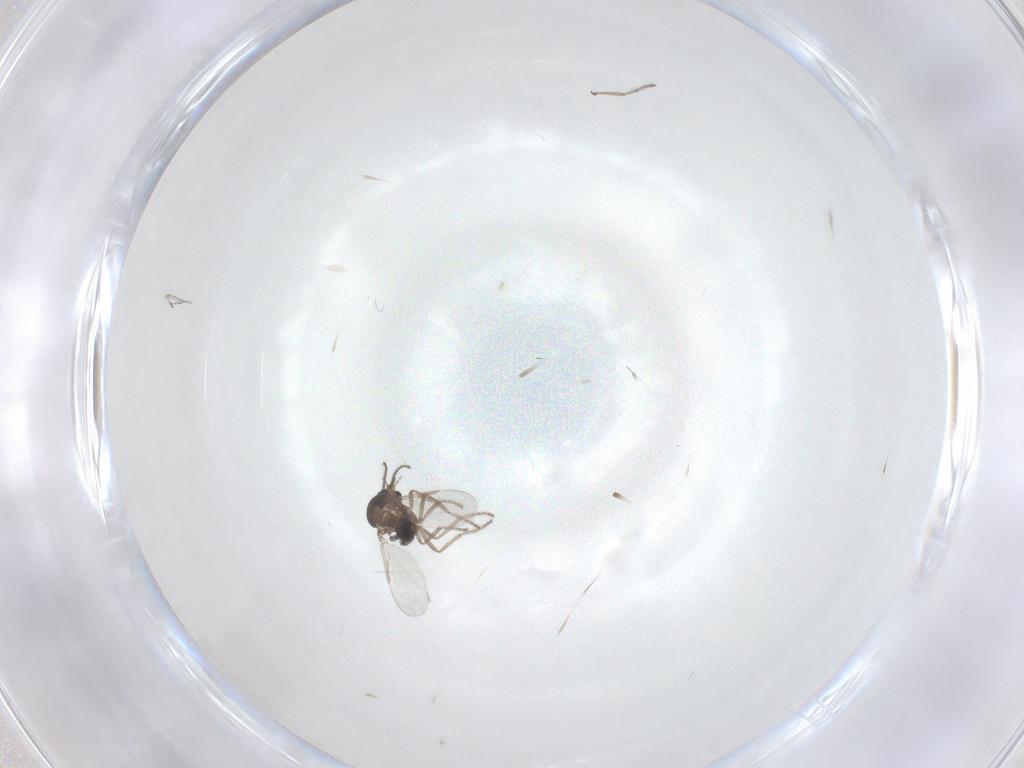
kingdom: Animalia
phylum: Arthropoda
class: Insecta
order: Diptera
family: Ceratopogonidae
